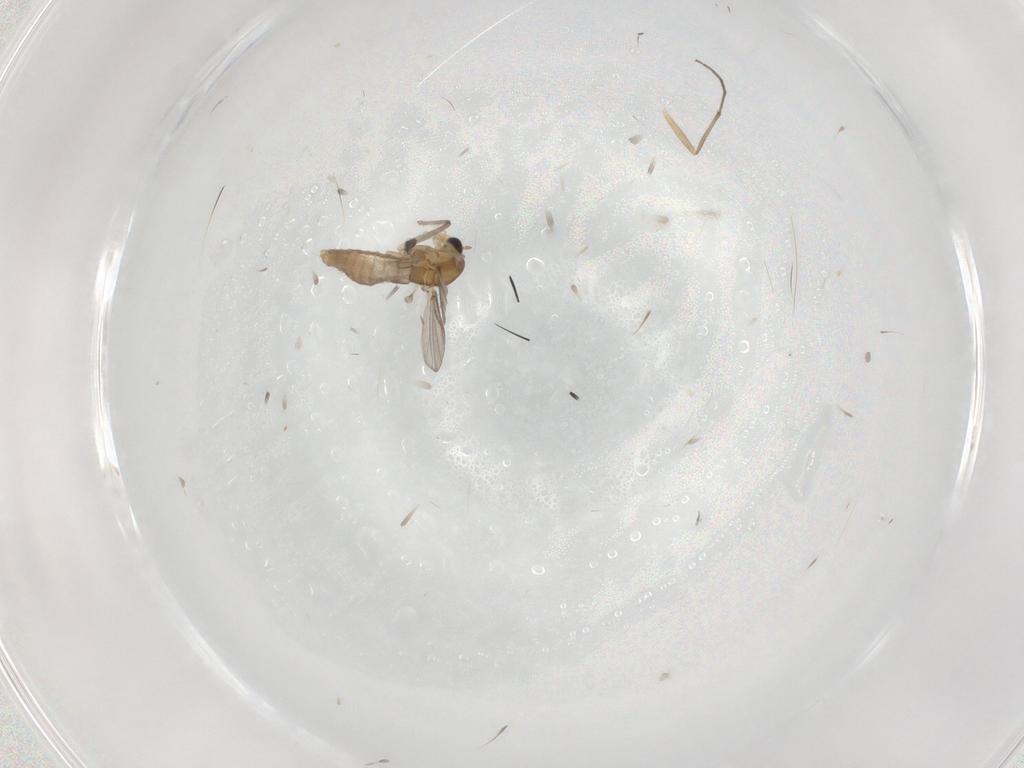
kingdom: Animalia
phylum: Arthropoda
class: Insecta
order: Diptera
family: Chironomidae
